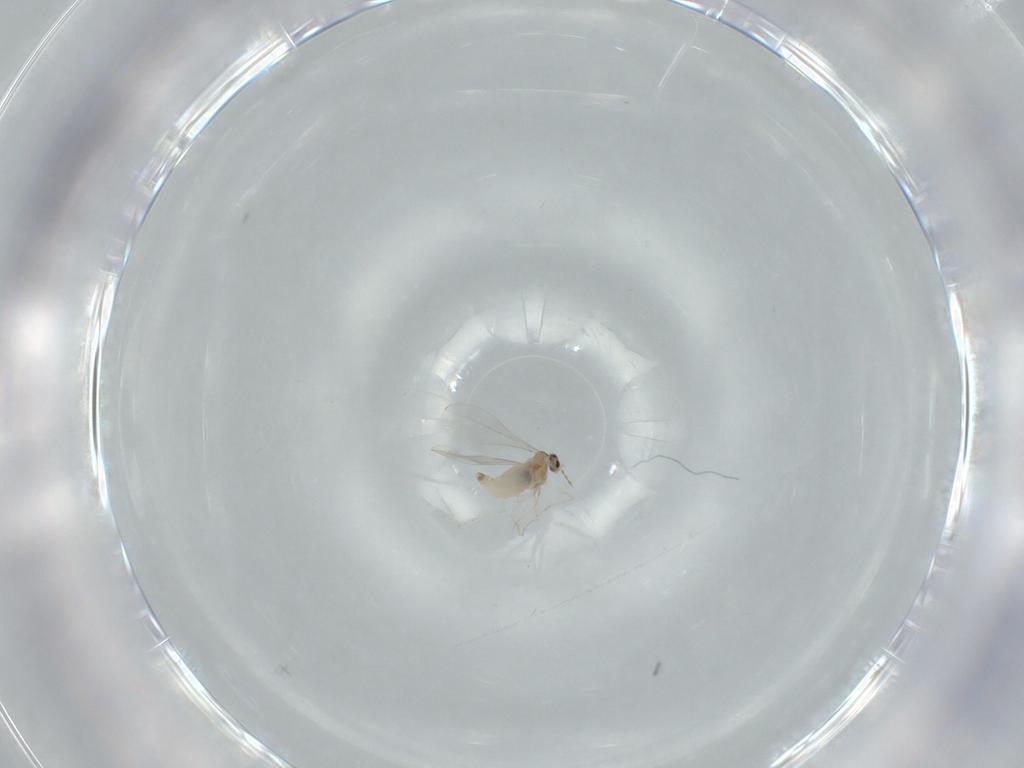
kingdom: Animalia
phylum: Arthropoda
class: Insecta
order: Diptera
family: Cecidomyiidae
